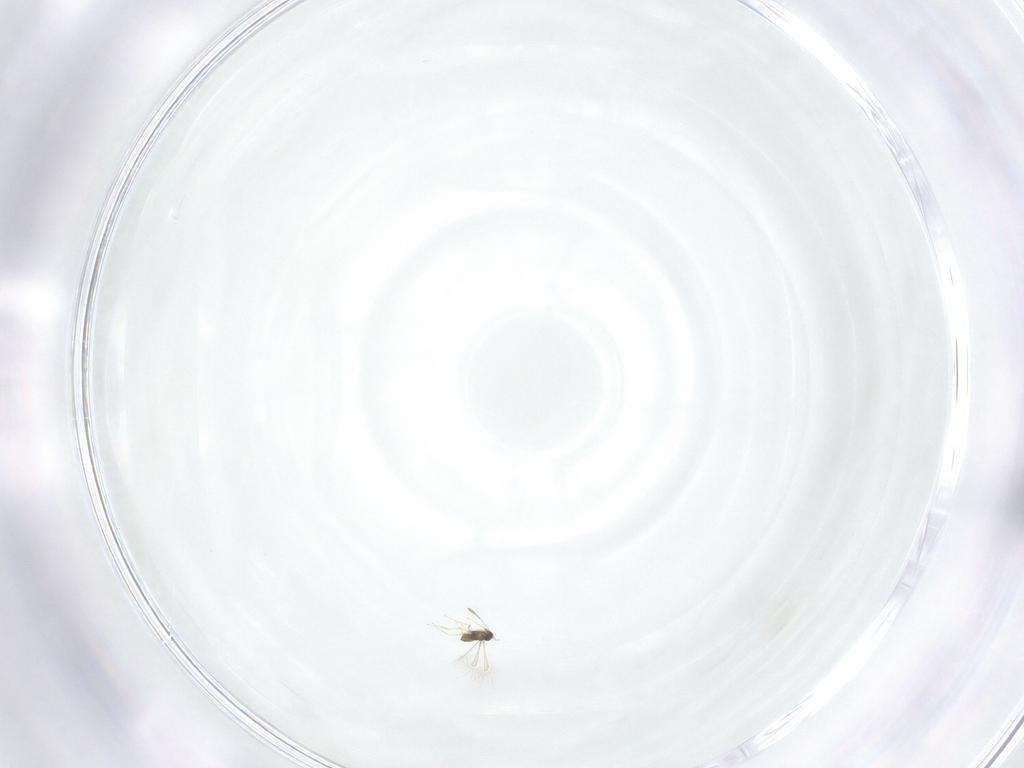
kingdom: Animalia
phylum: Arthropoda
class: Insecta
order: Hymenoptera
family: Mymaridae
